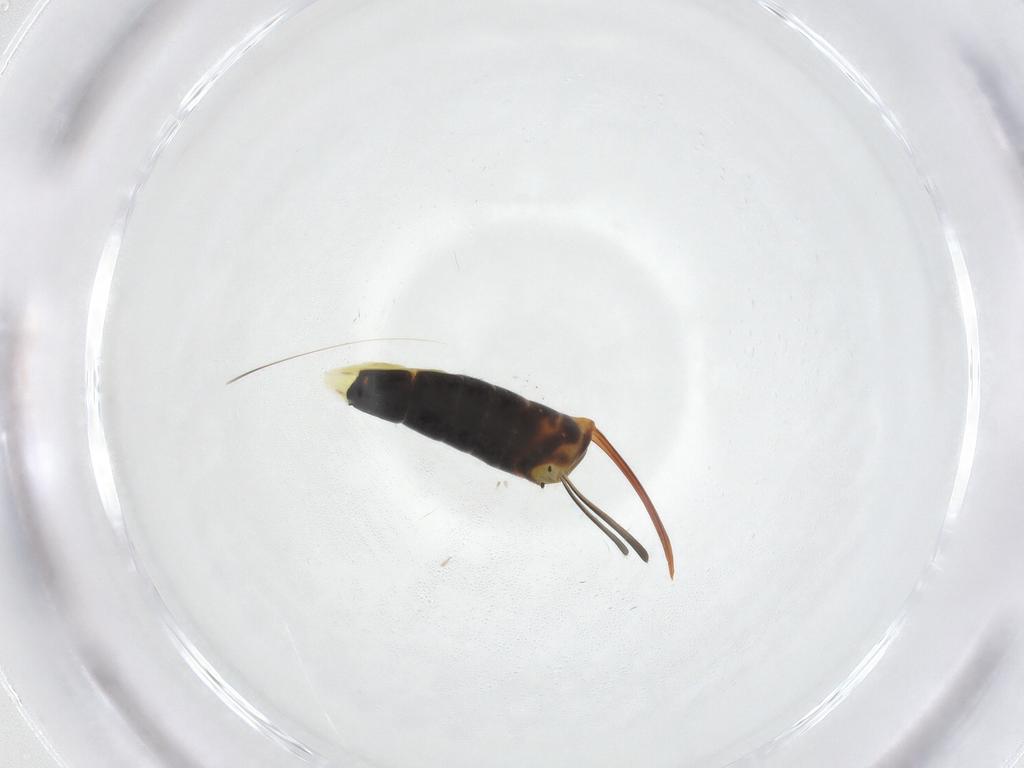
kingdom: Animalia
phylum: Arthropoda
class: Insecta
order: Hymenoptera
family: Ichneumonidae
